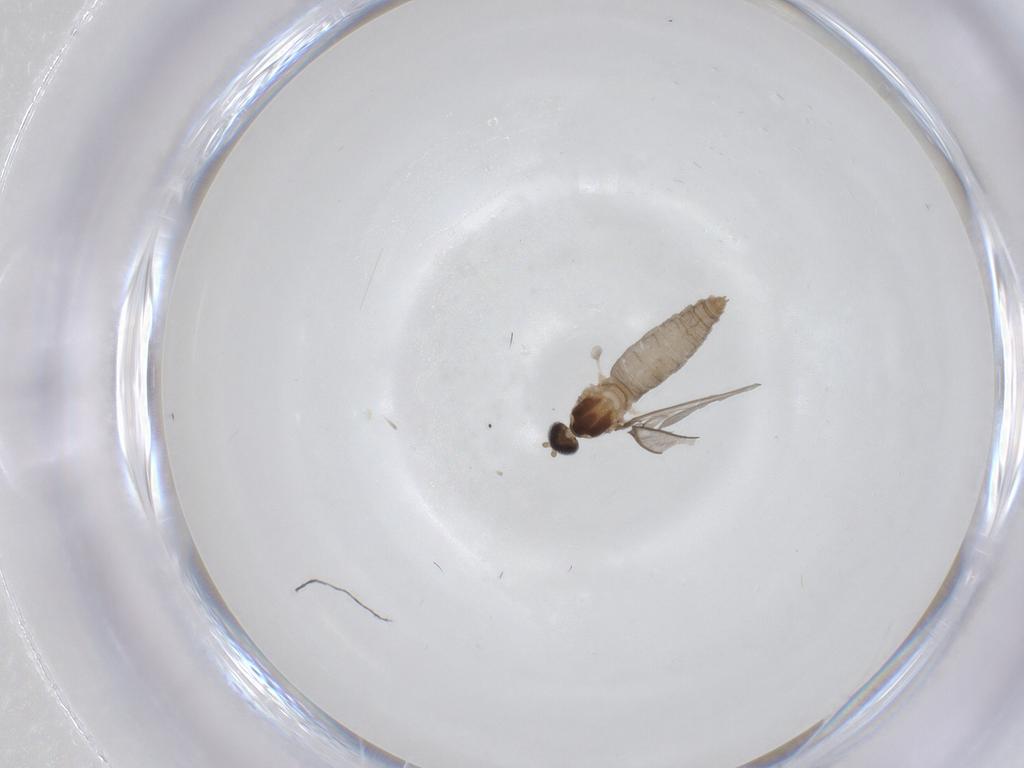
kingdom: Animalia
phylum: Arthropoda
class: Insecta
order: Diptera
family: Cecidomyiidae
